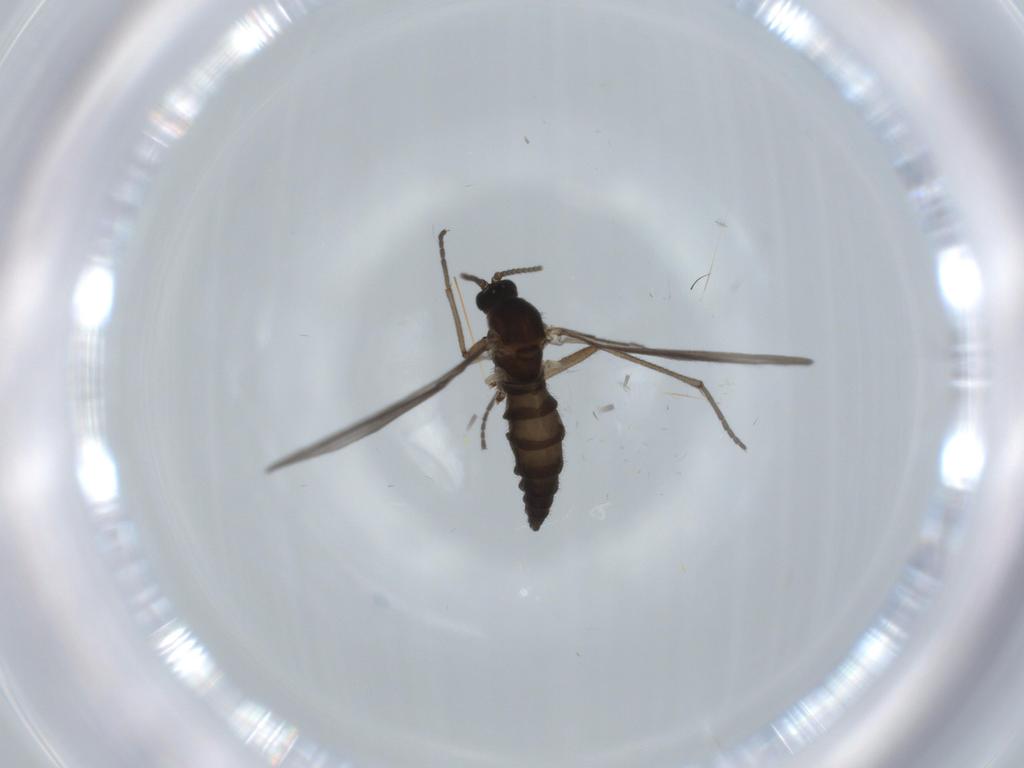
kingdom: Animalia
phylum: Arthropoda
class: Insecta
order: Diptera
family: Sciaridae
